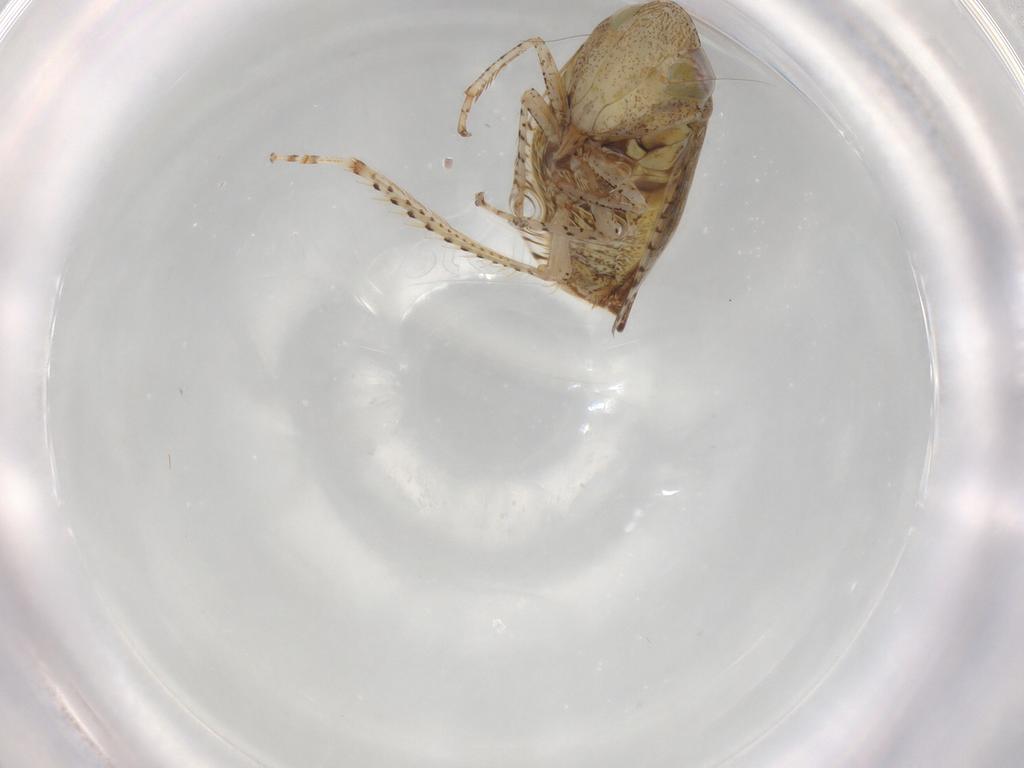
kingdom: Animalia
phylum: Arthropoda
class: Insecta
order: Hemiptera
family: Cicadellidae
